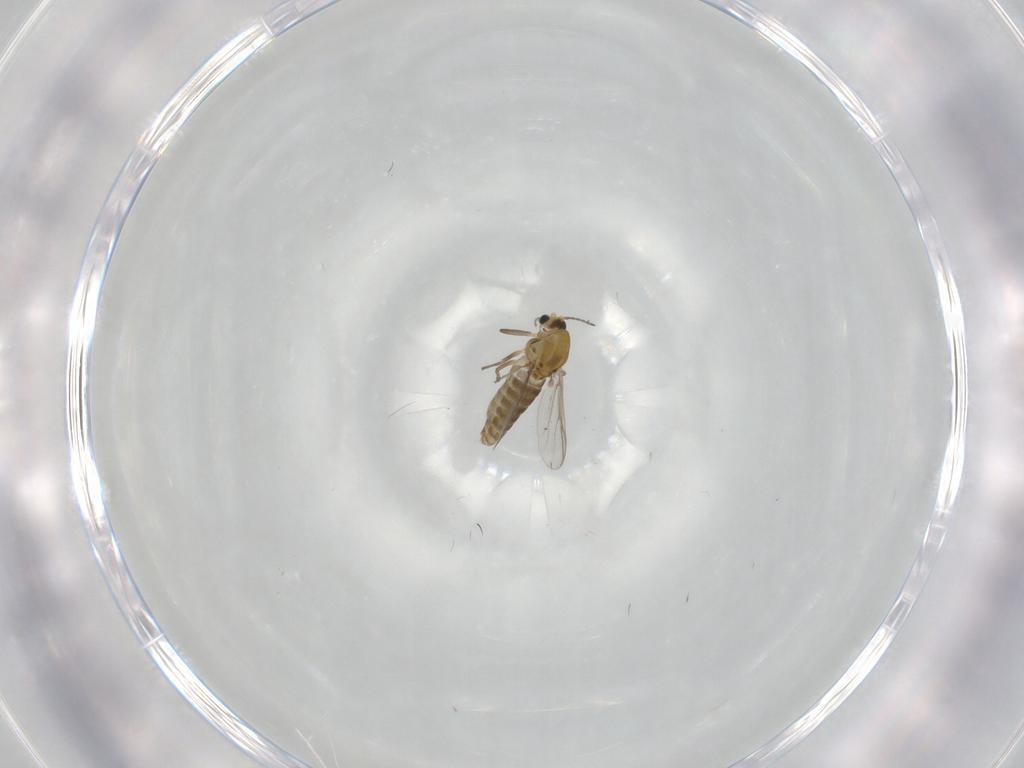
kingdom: Animalia
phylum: Arthropoda
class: Insecta
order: Diptera
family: Chironomidae
